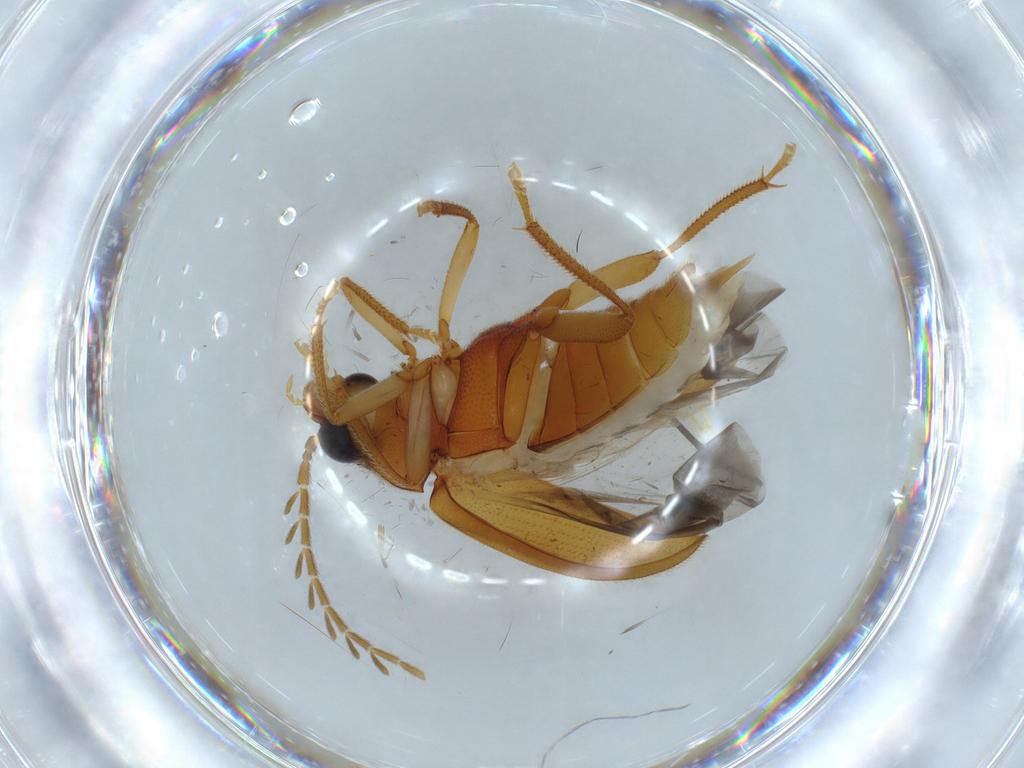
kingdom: Animalia
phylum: Arthropoda
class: Insecta
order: Coleoptera
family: Ptilodactylidae
